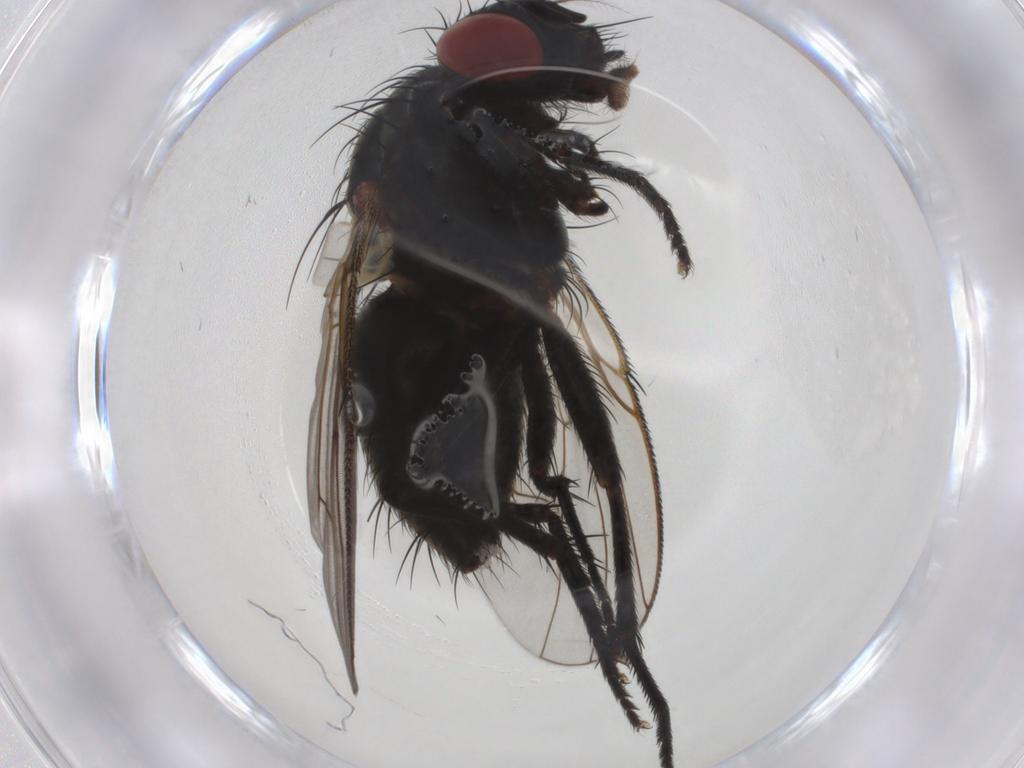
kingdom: Animalia
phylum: Arthropoda
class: Insecta
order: Diptera
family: Muscidae
